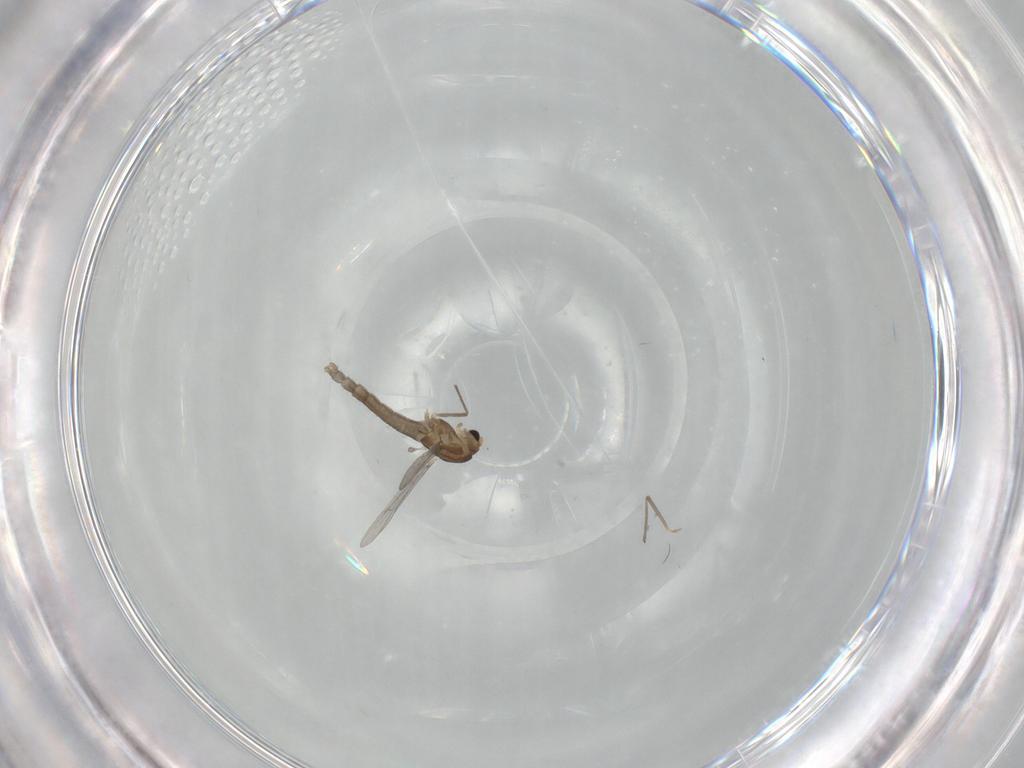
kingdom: Animalia
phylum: Arthropoda
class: Insecta
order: Diptera
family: Chironomidae
